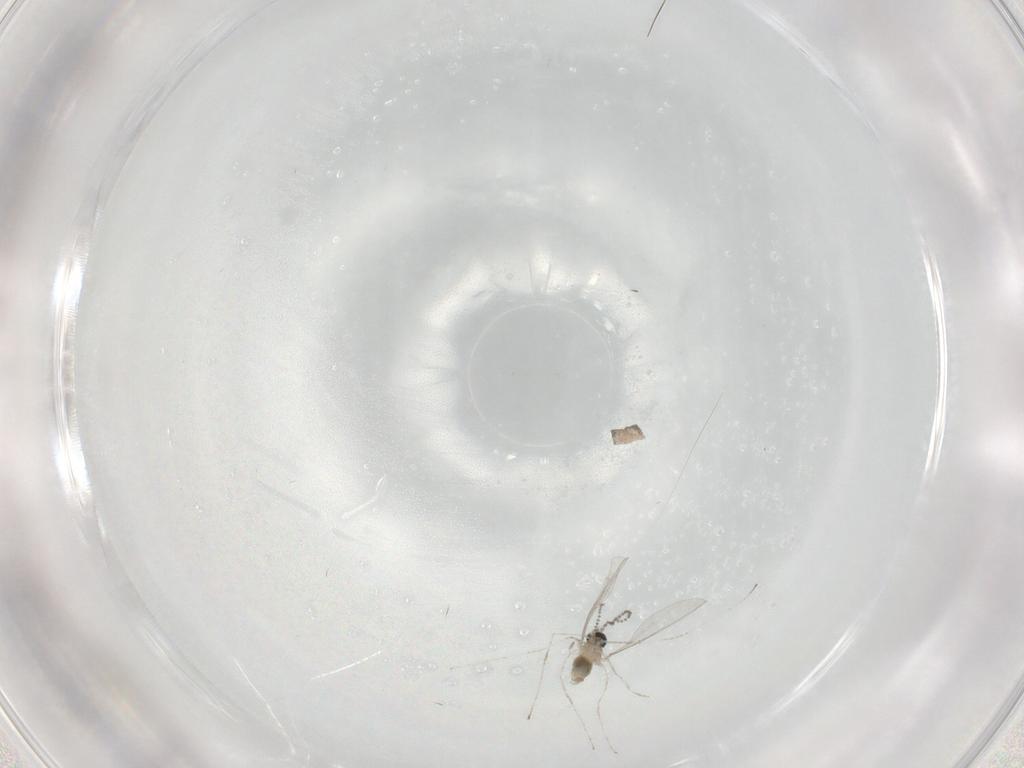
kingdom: Animalia
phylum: Arthropoda
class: Insecta
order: Diptera
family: Cecidomyiidae
